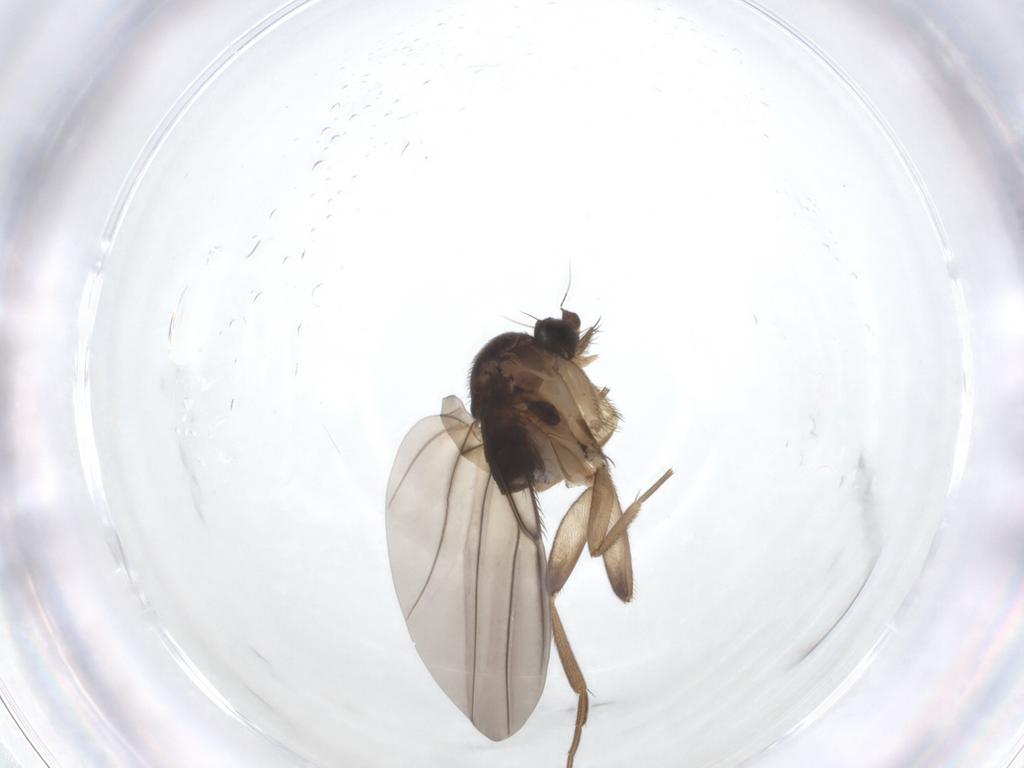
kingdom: Animalia
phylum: Arthropoda
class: Insecta
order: Diptera
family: Phoridae
